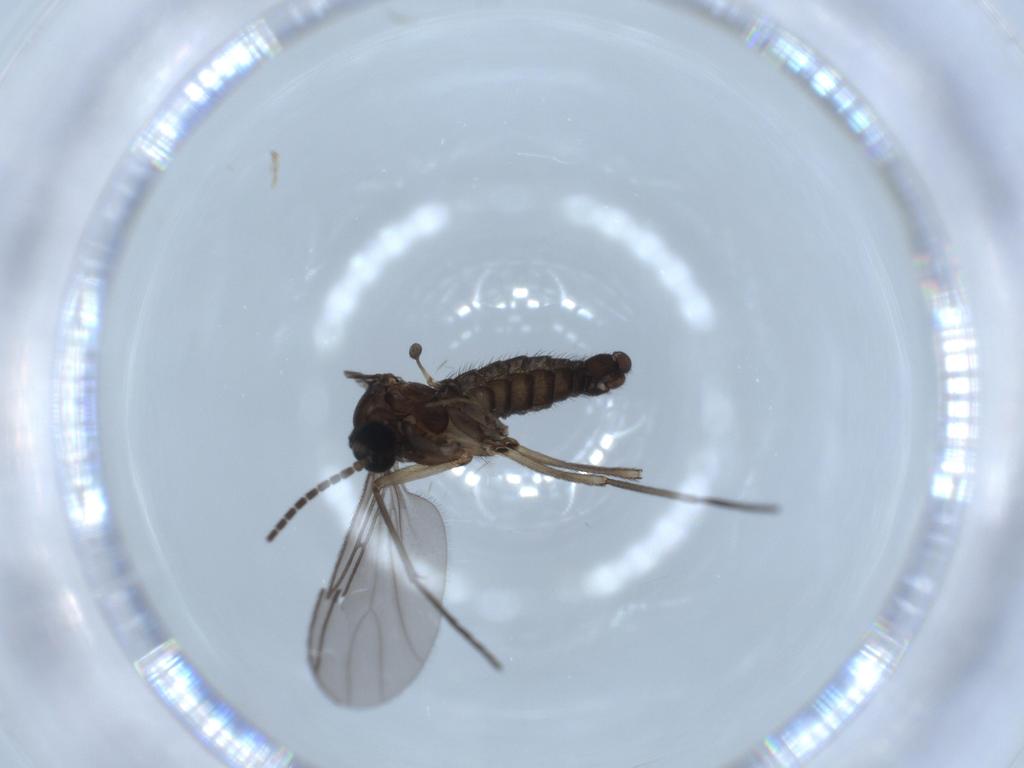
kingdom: Animalia
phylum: Arthropoda
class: Insecta
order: Diptera
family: Sciaridae
